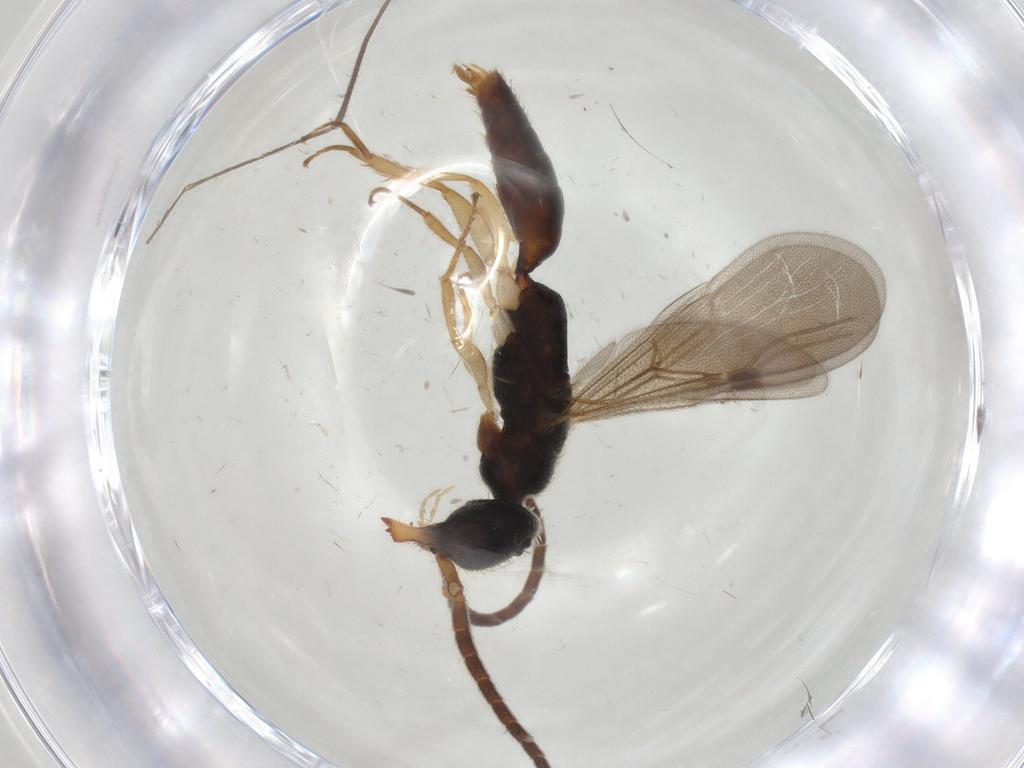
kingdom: Animalia
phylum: Arthropoda
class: Insecta
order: Hymenoptera
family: Bethylidae
